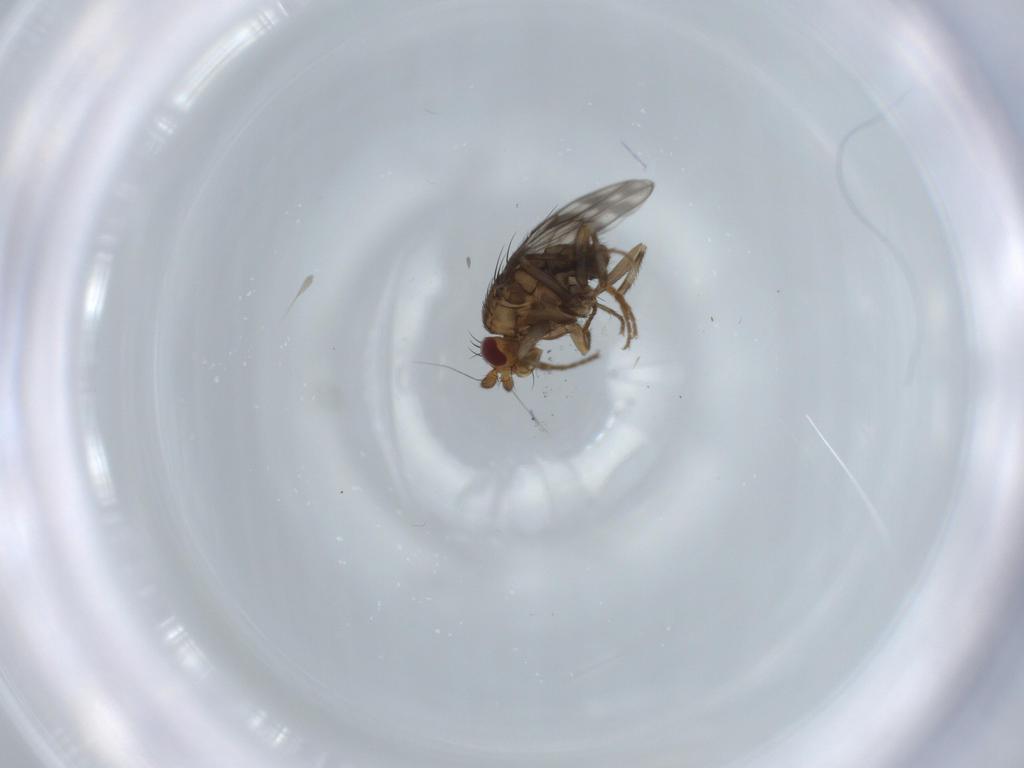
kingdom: Animalia
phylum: Arthropoda
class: Insecta
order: Diptera
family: Sphaeroceridae
